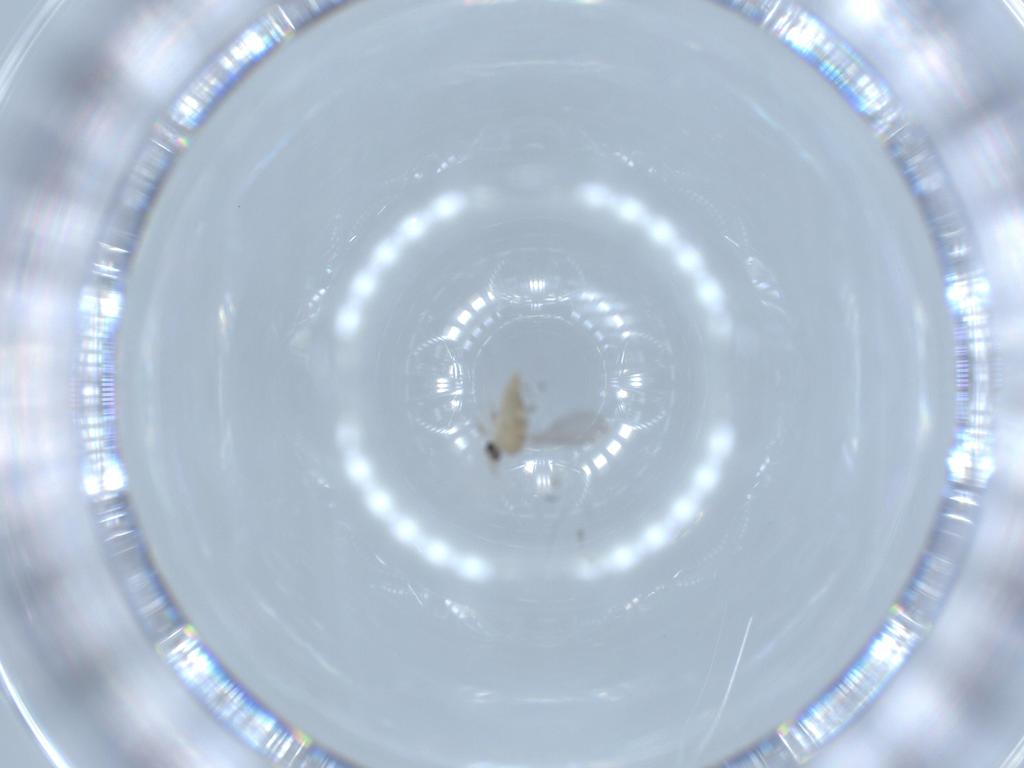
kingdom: Animalia
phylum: Arthropoda
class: Insecta
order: Diptera
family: Cecidomyiidae
